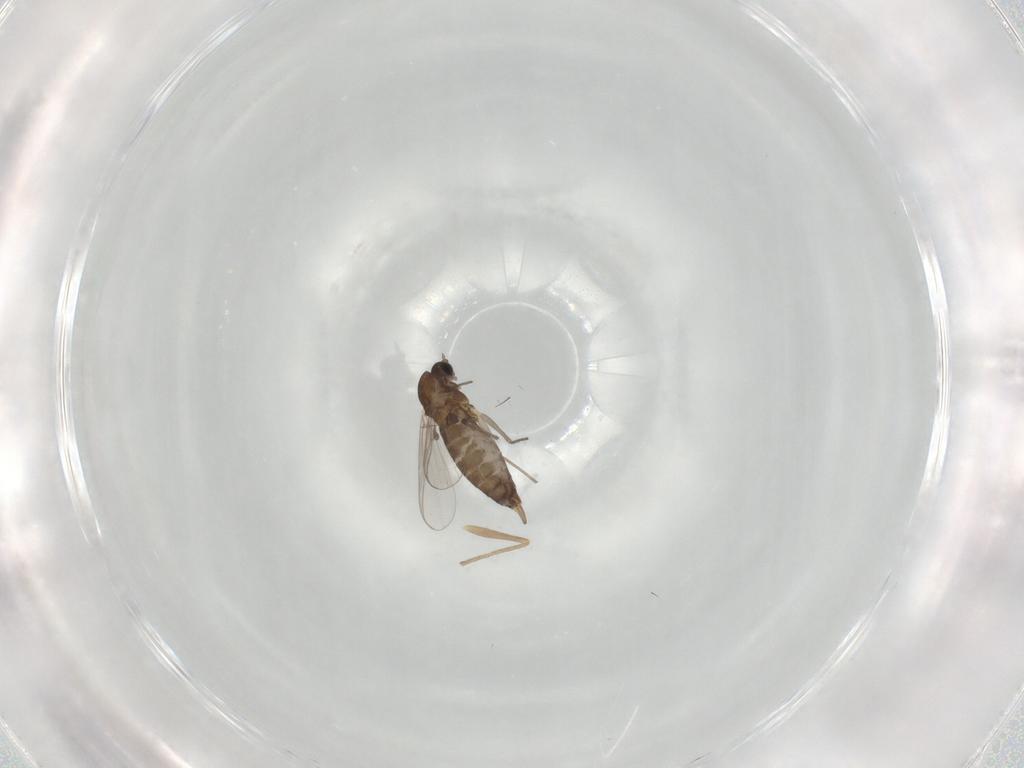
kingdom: Animalia
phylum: Arthropoda
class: Insecta
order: Diptera
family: Chironomidae
